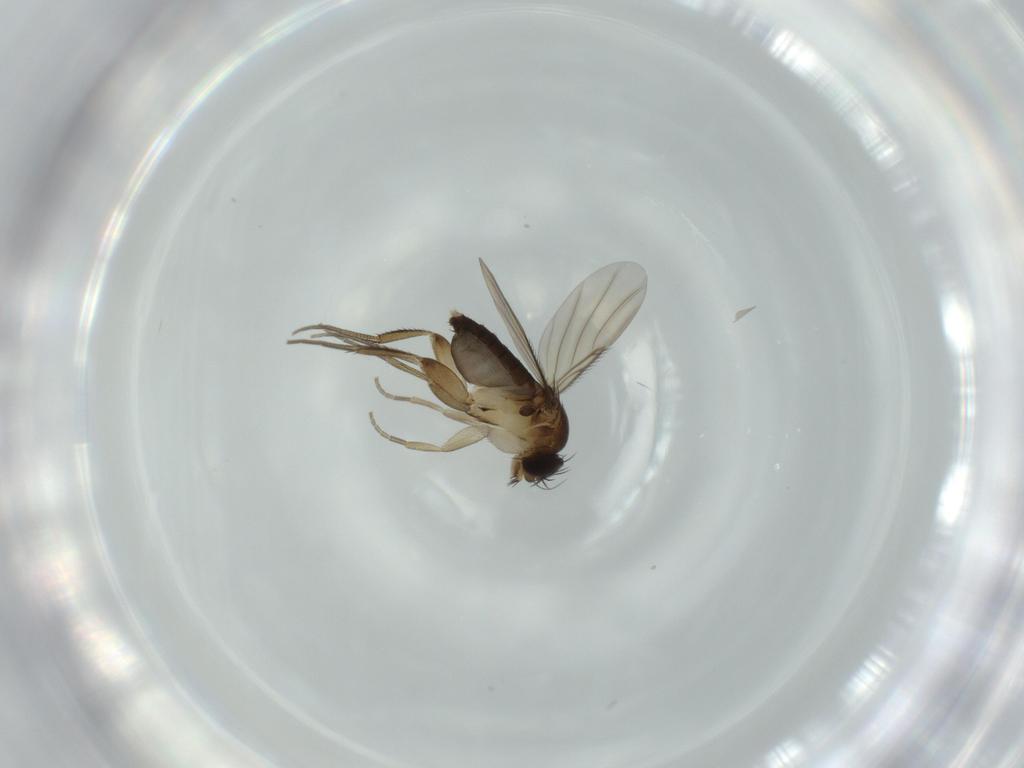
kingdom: Animalia
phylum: Arthropoda
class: Insecta
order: Diptera
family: Phoridae
